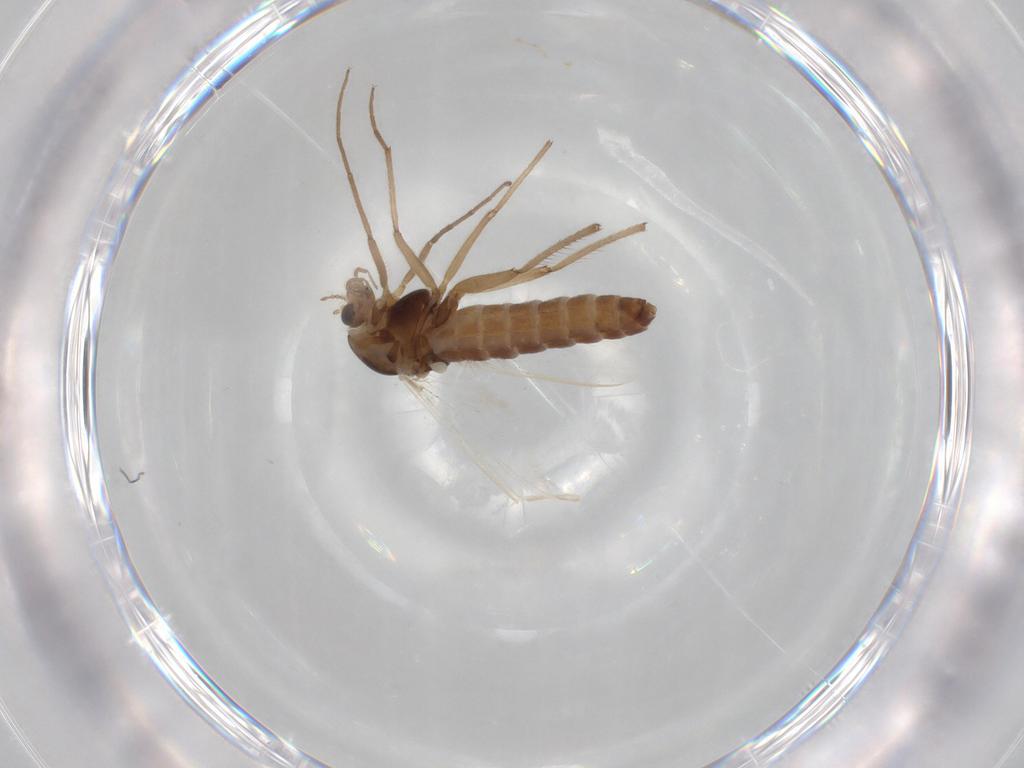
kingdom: Animalia
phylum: Arthropoda
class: Insecta
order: Diptera
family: Chironomidae
